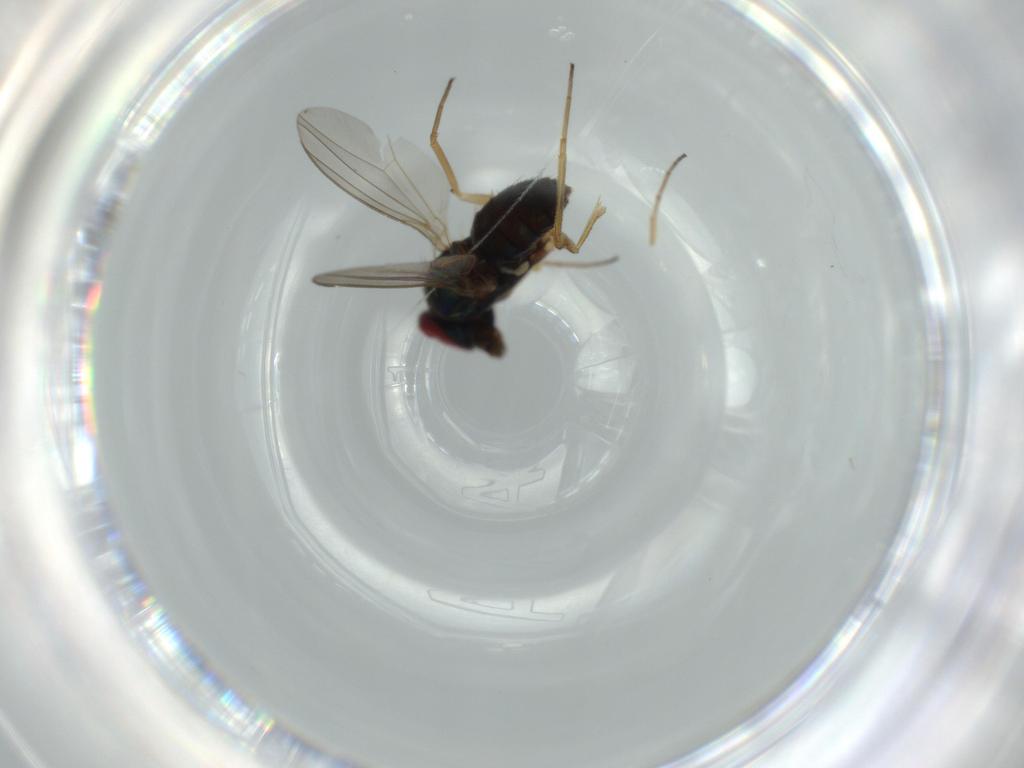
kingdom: Animalia
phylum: Arthropoda
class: Insecta
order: Diptera
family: Dolichopodidae
